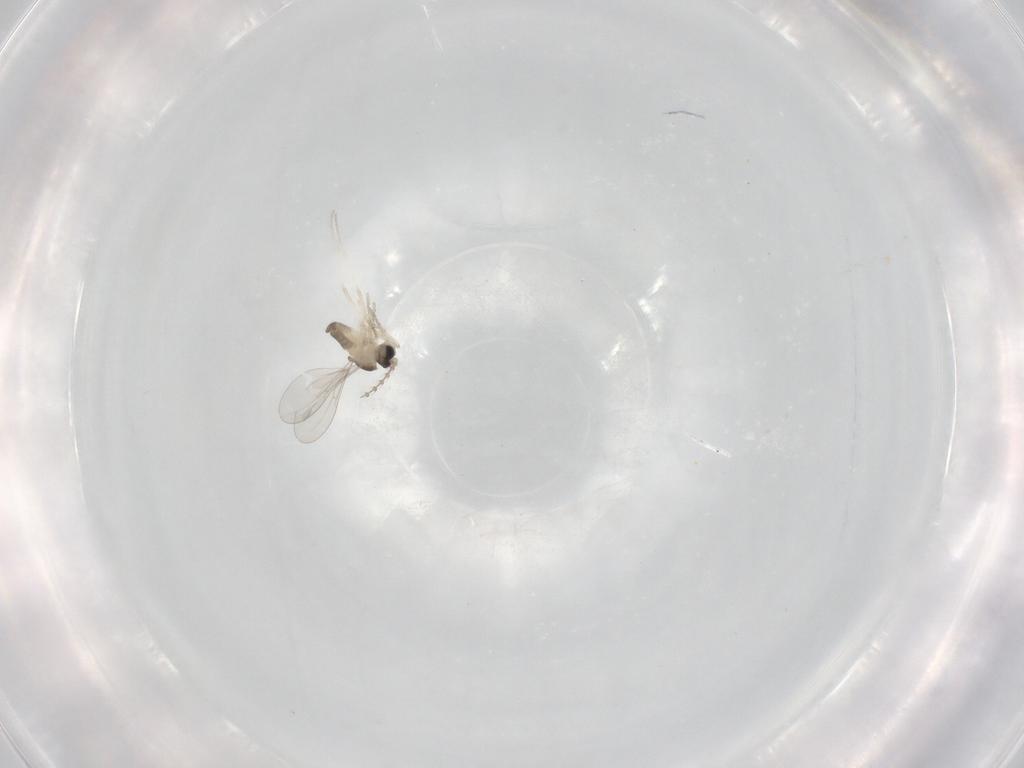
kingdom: Animalia
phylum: Arthropoda
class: Insecta
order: Diptera
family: Cecidomyiidae
